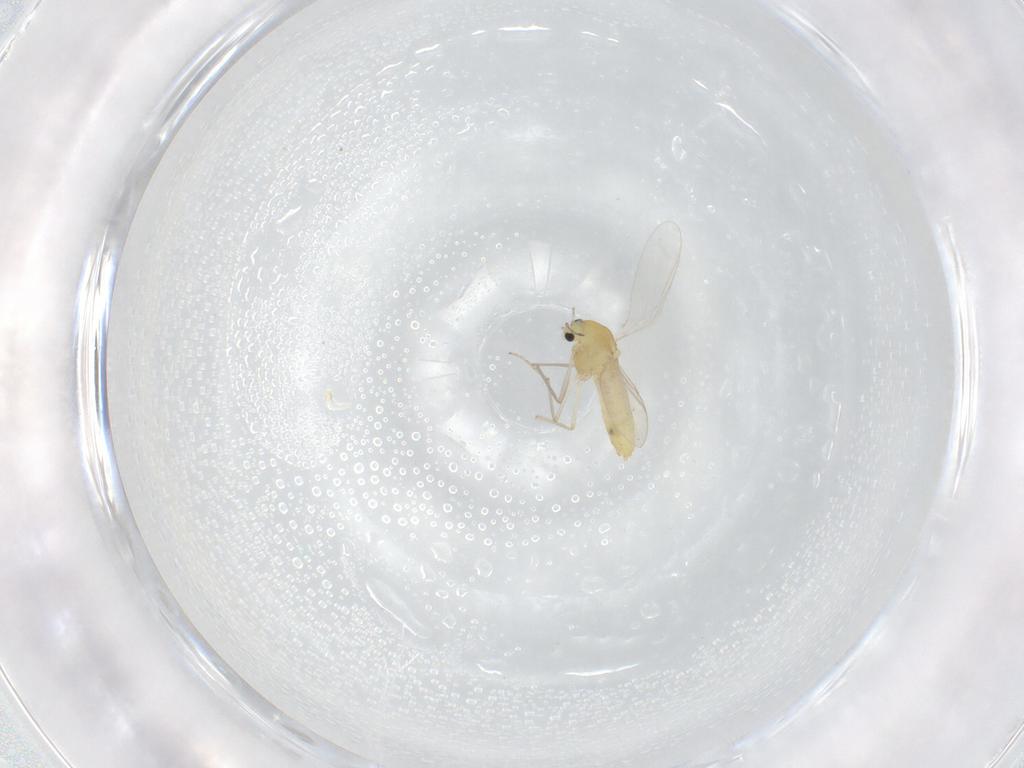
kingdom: Animalia
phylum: Arthropoda
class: Insecta
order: Diptera
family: Chironomidae
